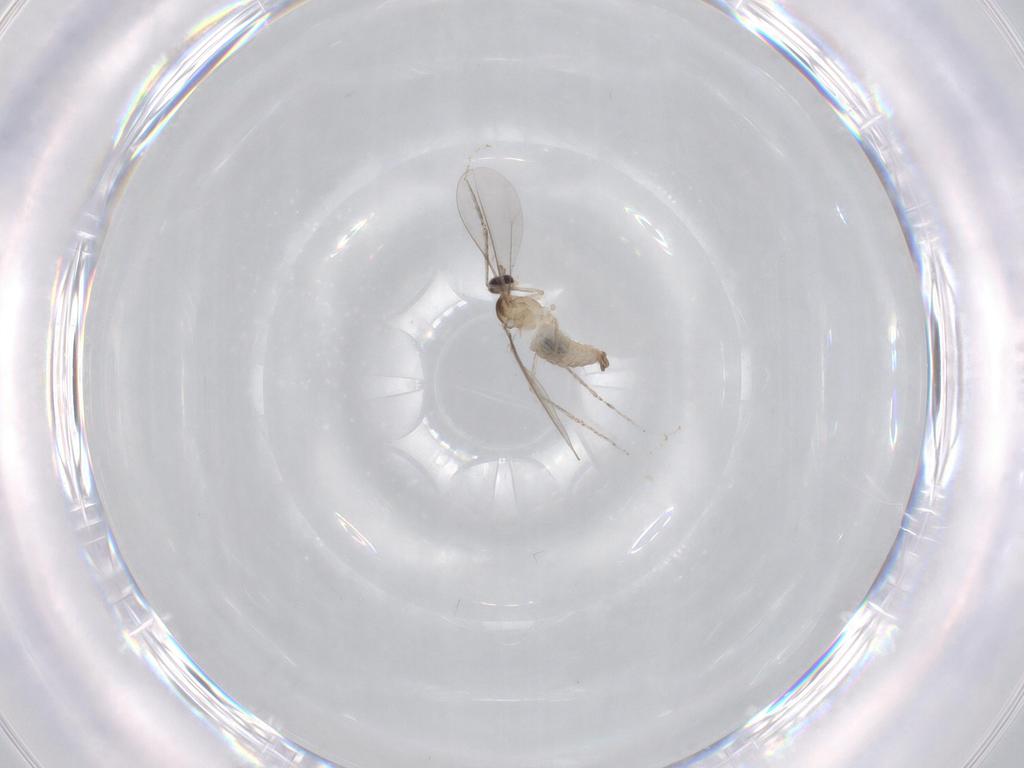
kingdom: Animalia
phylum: Arthropoda
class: Insecta
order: Diptera
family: Cecidomyiidae
